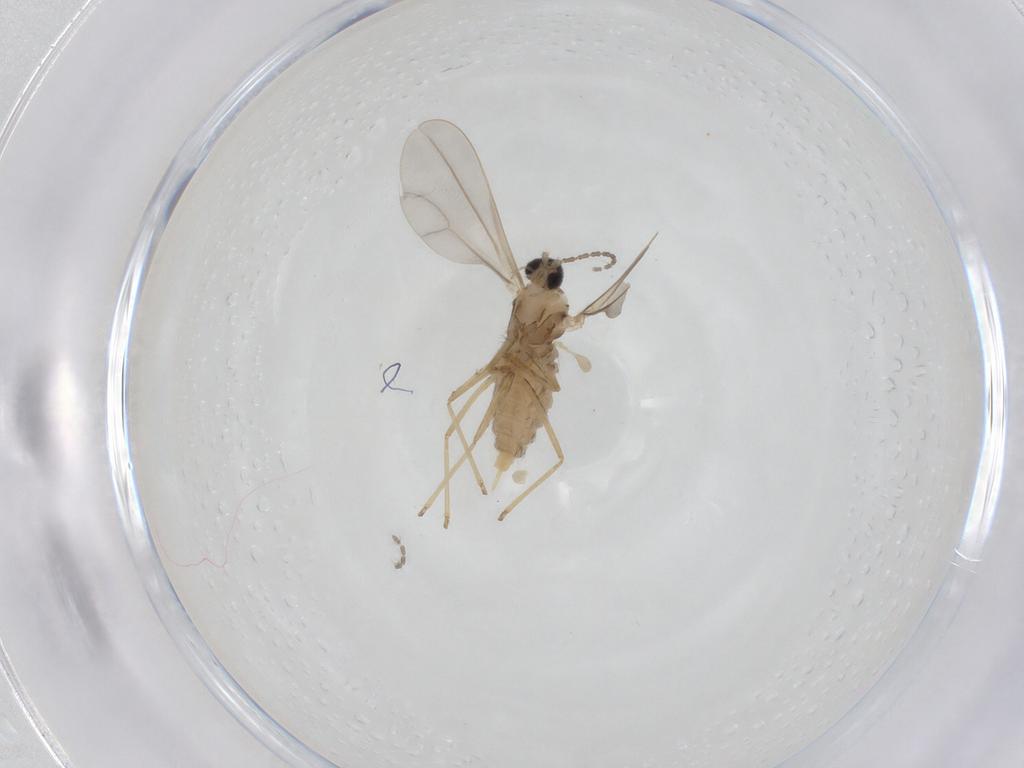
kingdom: Animalia
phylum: Arthropoda
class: Insecta
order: Diptera
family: Cecidomyiidae
